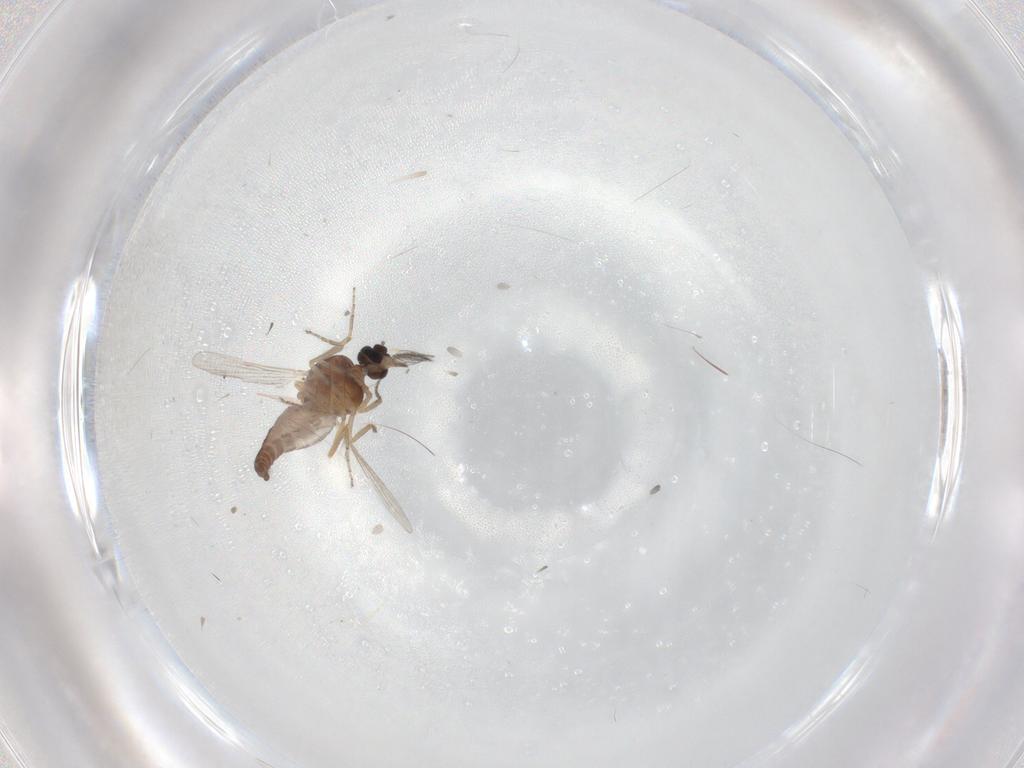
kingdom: Animalia
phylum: Arthropoda
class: Insecta
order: Diptera
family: Ceratopogonidae
